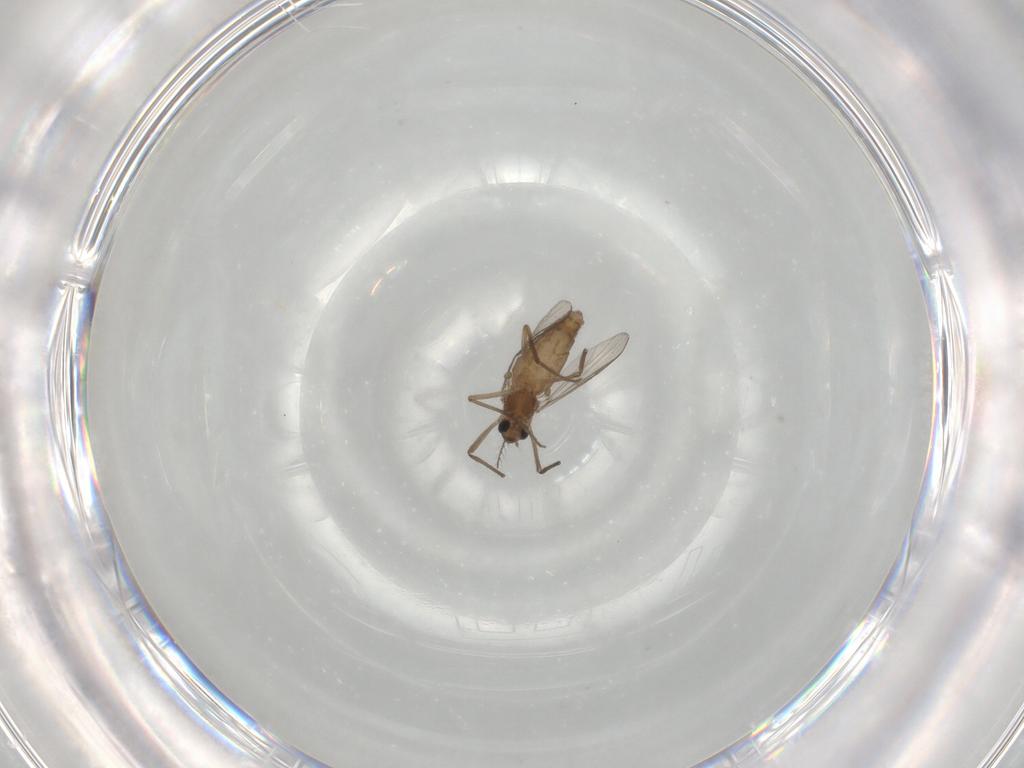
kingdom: Animalia
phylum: Arthropoda
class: Insecta
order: Diptera
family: Chironomidae
